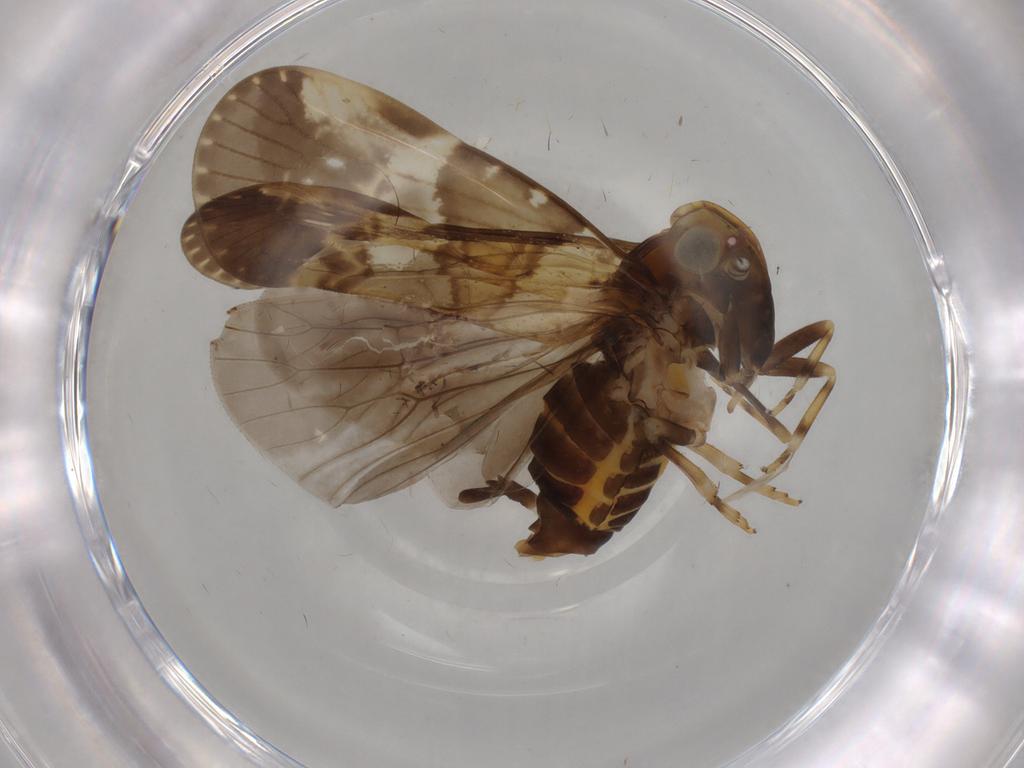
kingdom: Animalia
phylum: Arthropoda
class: Insecta
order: Hemiptera
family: Cixiidae
